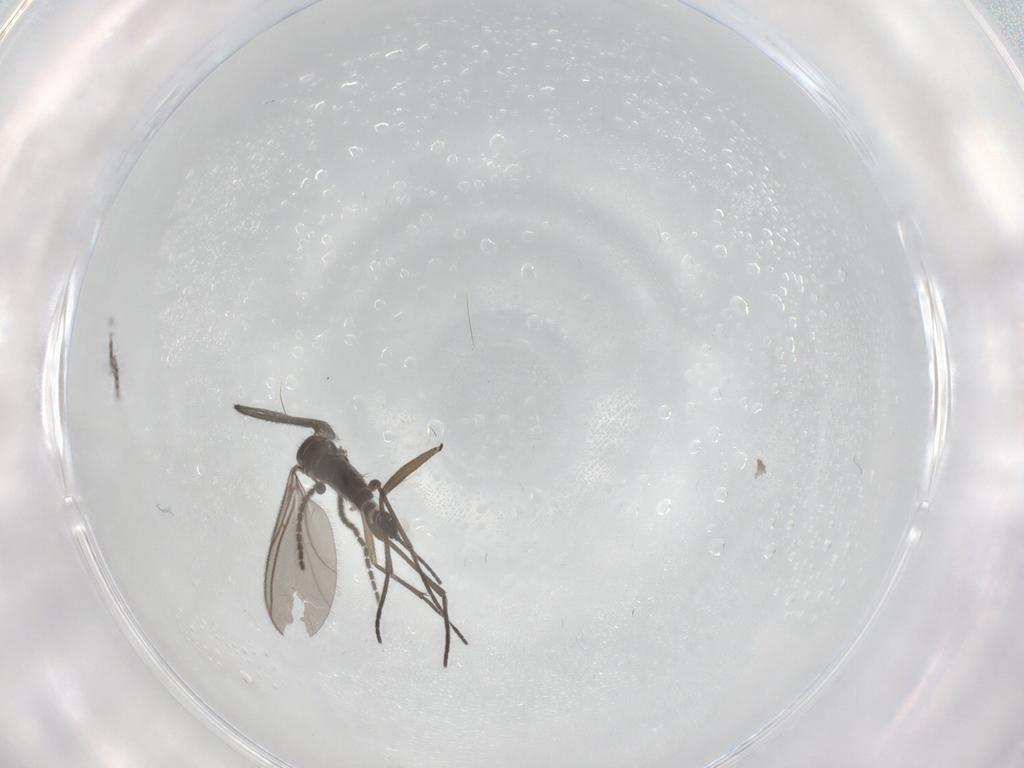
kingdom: Animalia
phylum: Arthropoda
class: Insecta
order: Diptera
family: Sciaridae
